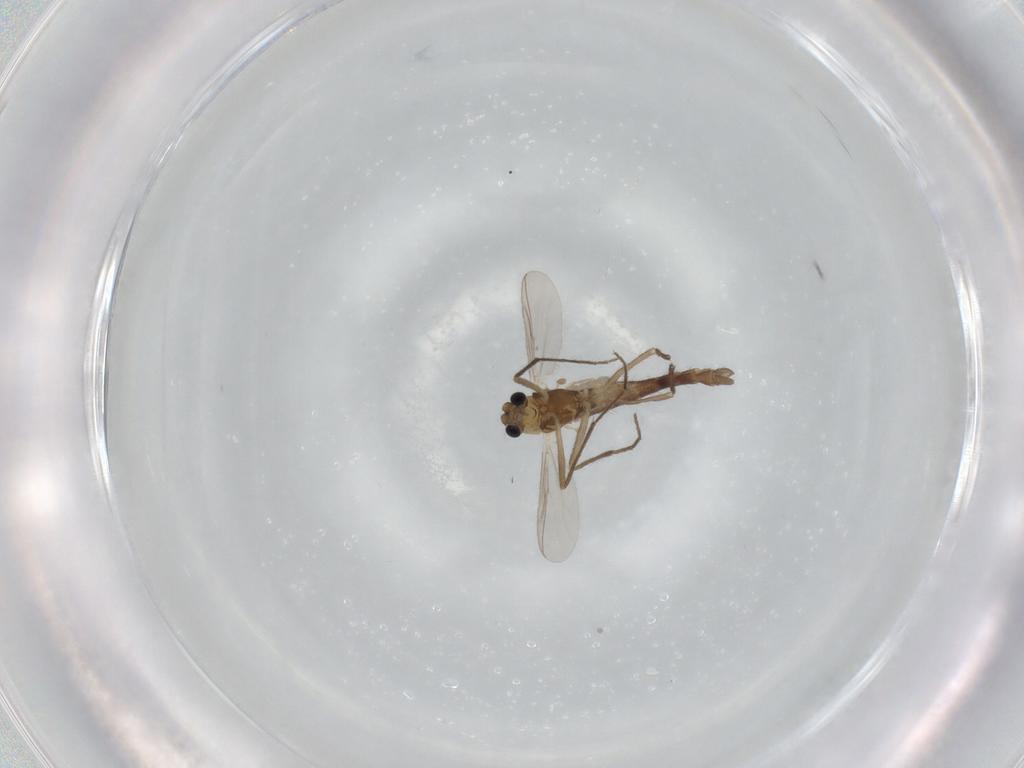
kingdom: Animalia
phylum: Arthropoda
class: Insecta
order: Diptera
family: Chironomidae
